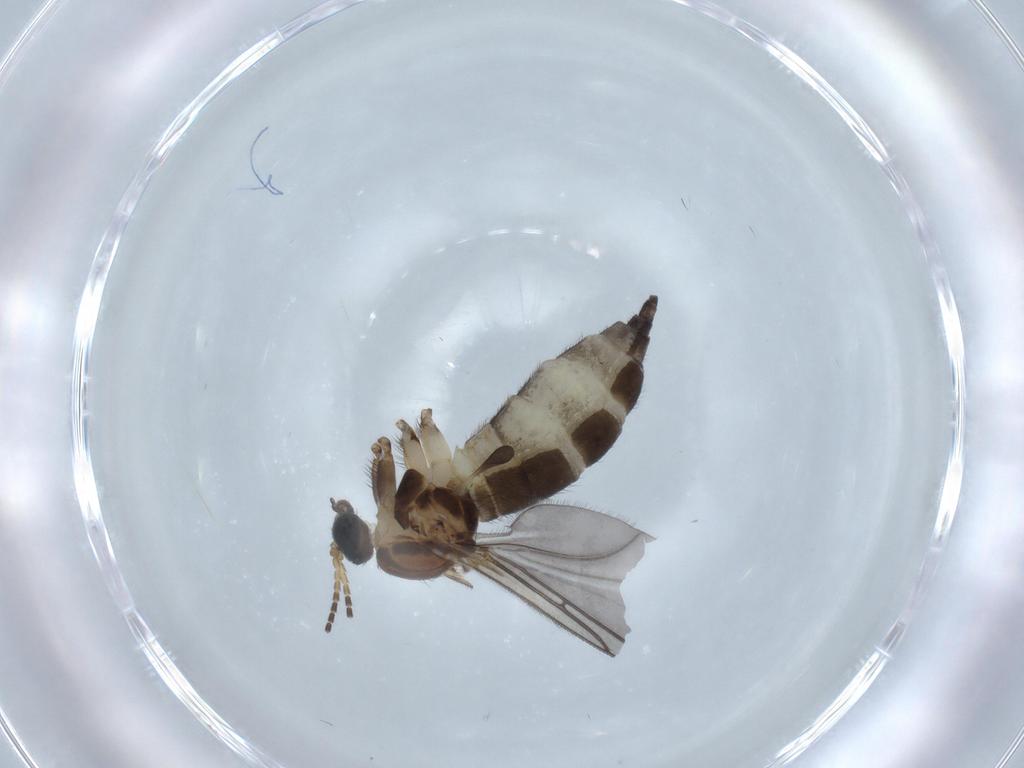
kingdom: Animalia
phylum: Arthropoda
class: Insecta
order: Diptera
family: Sciaridae
